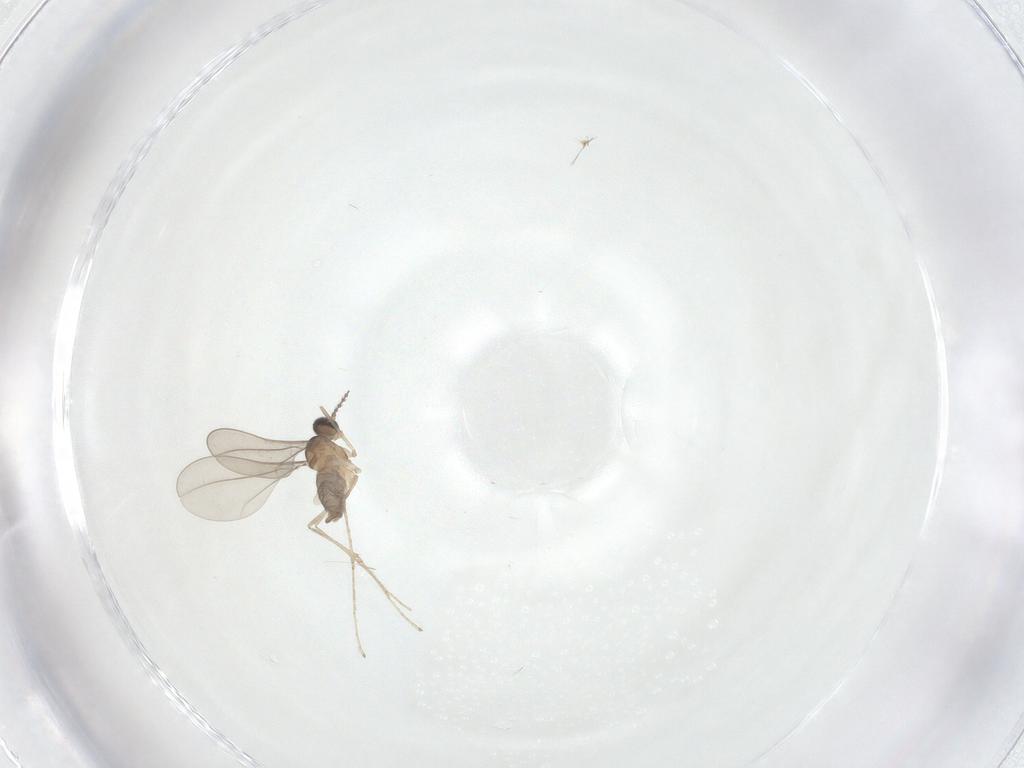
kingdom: Animalia
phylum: Arthropoda
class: Insecta
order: Diptera
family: Cecidomyiidae
